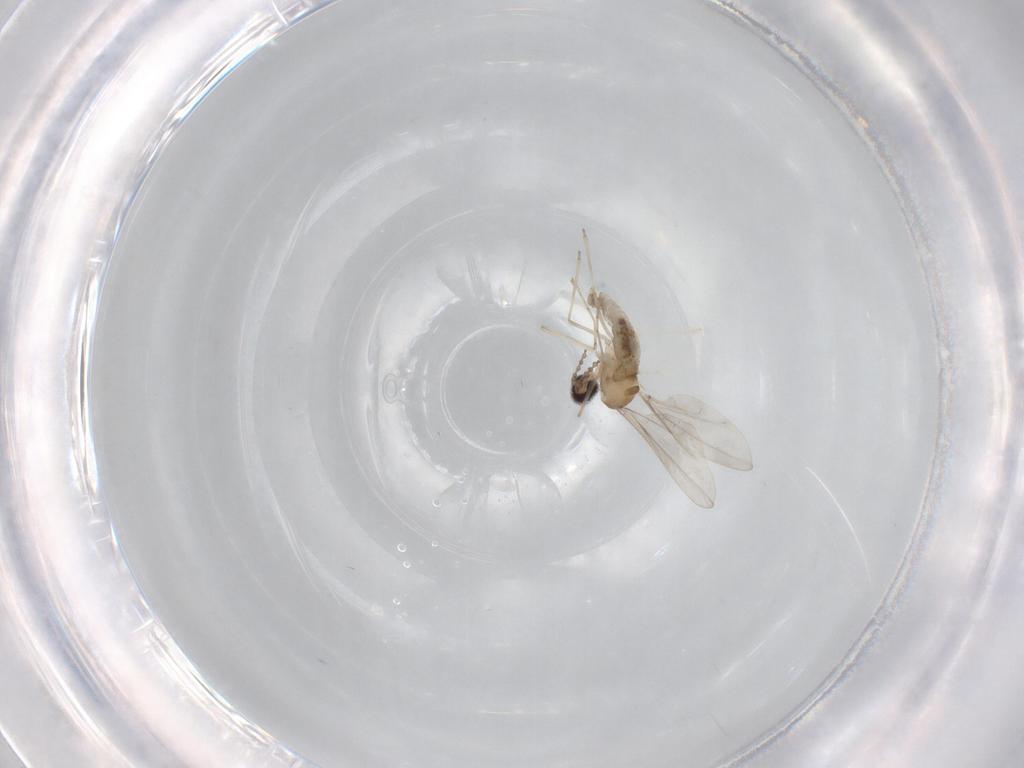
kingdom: Animalia
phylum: Arthropoda
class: Insecta
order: Diptera
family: Cecidomyiidae
